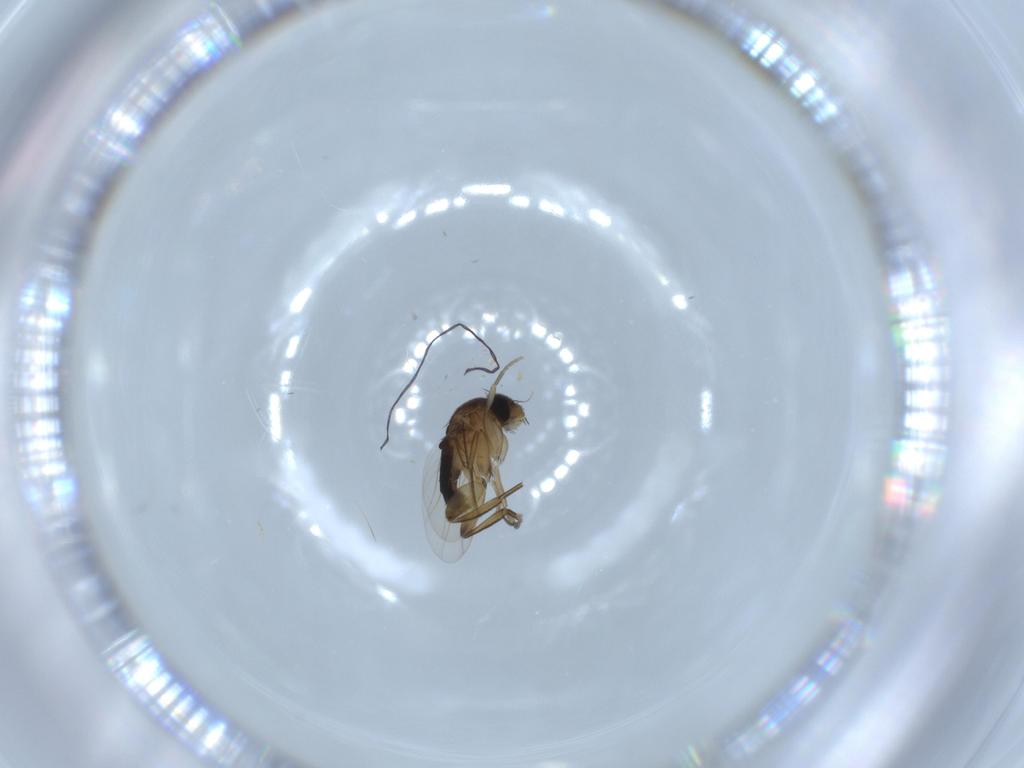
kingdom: Animalia
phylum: Arthropoda
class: Insecta
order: Diptera
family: Phoridae
